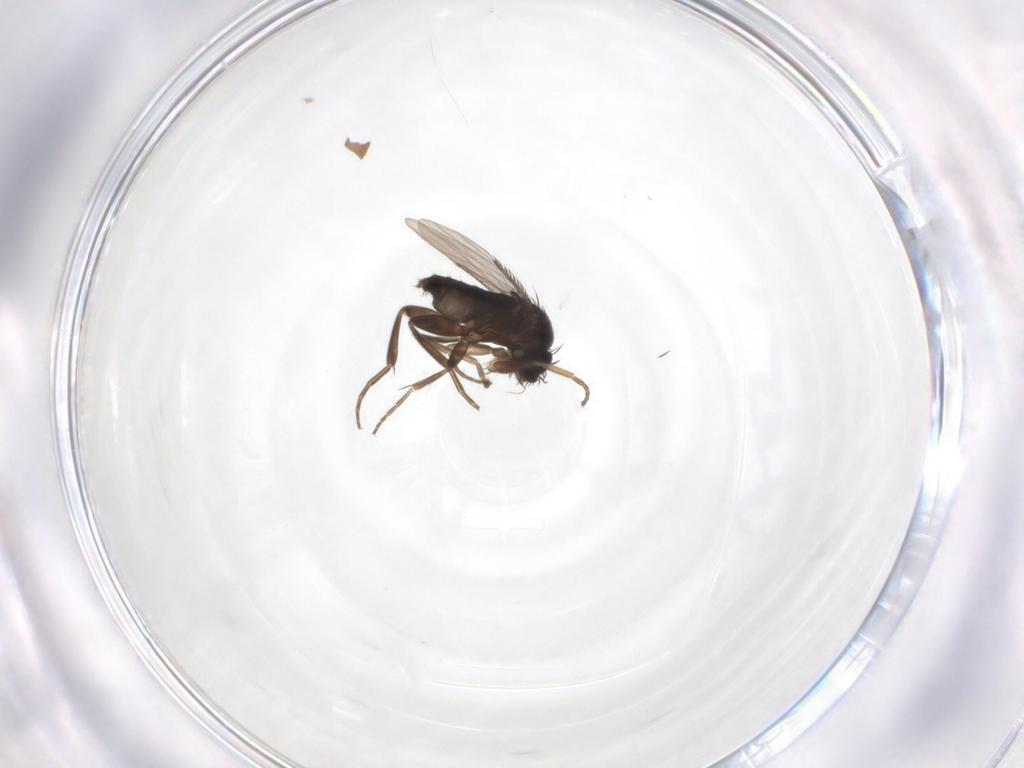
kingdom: Animalia
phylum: Arthropoda
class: Insecta
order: Diptera
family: Phoridae
